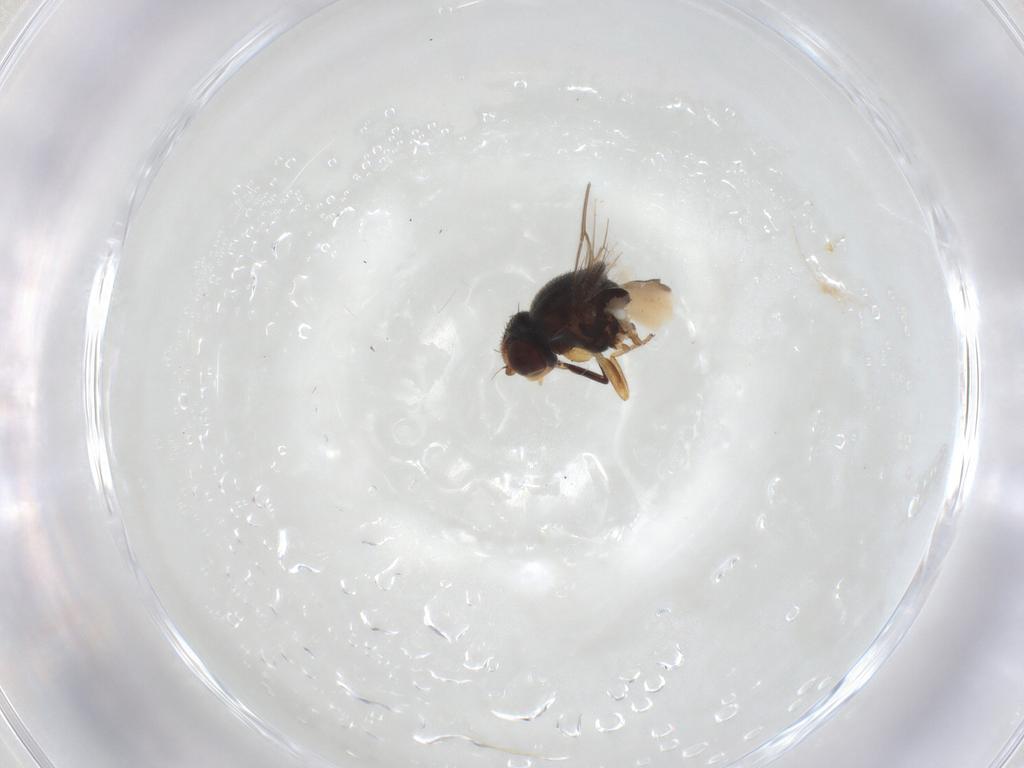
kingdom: Animalia
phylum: Arthropoda
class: Insecta
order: Diptera
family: Chloropidae
